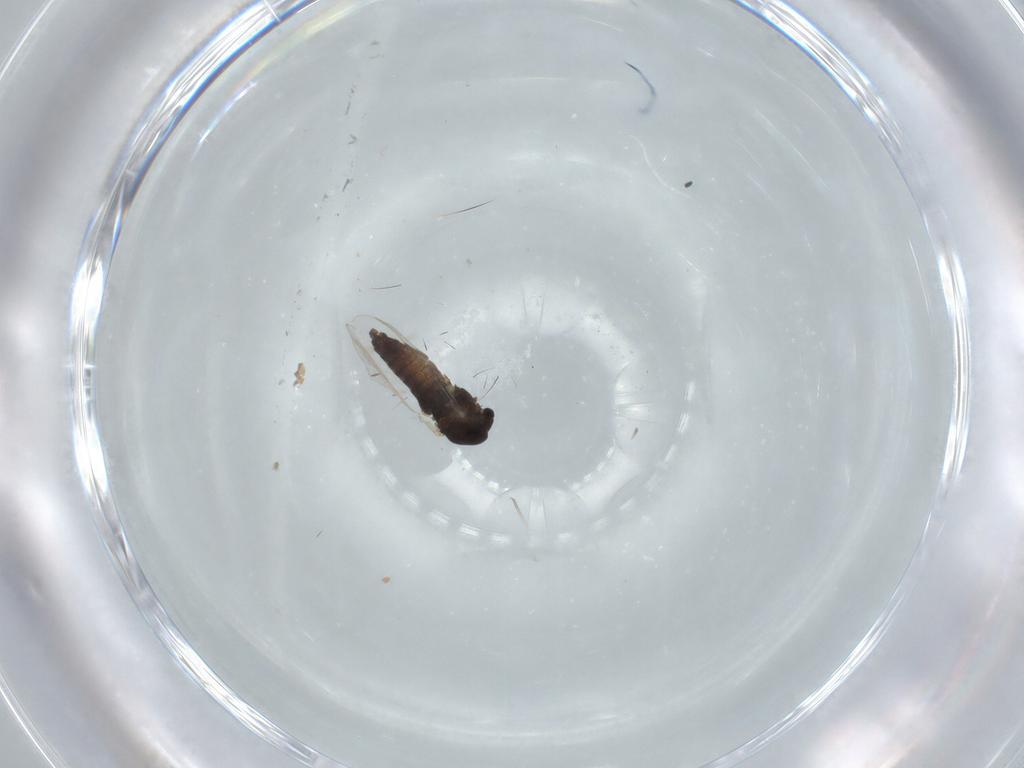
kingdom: Animalia
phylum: Arthropoda
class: Insecta
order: Diptera
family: Chironomidae
